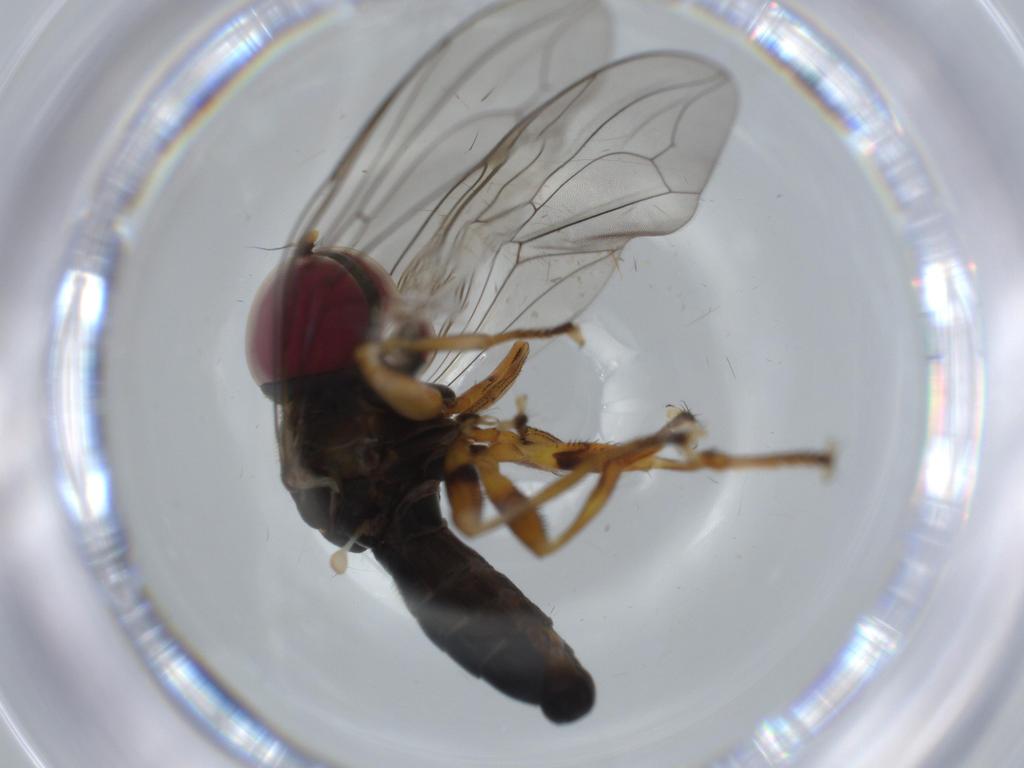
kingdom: Animalia
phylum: Arthropoda
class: Insecta
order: Diptera
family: Pipunculidae
